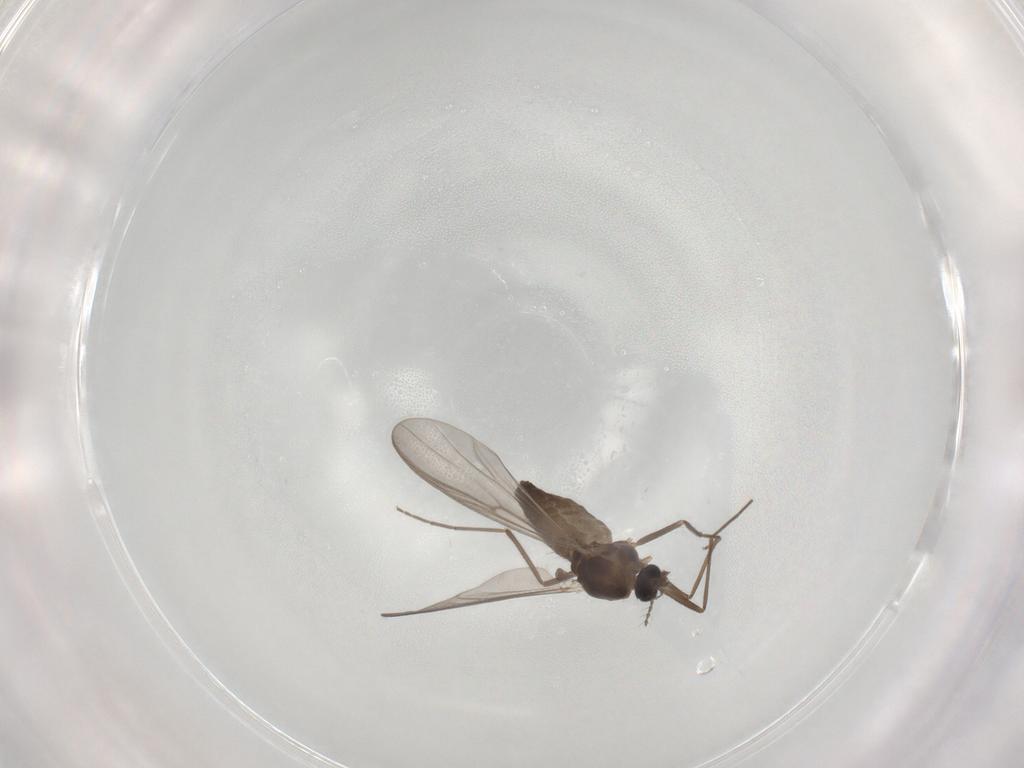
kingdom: Animalia
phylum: Arthropoda
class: Insecta
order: Diptera
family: Chironomidae
